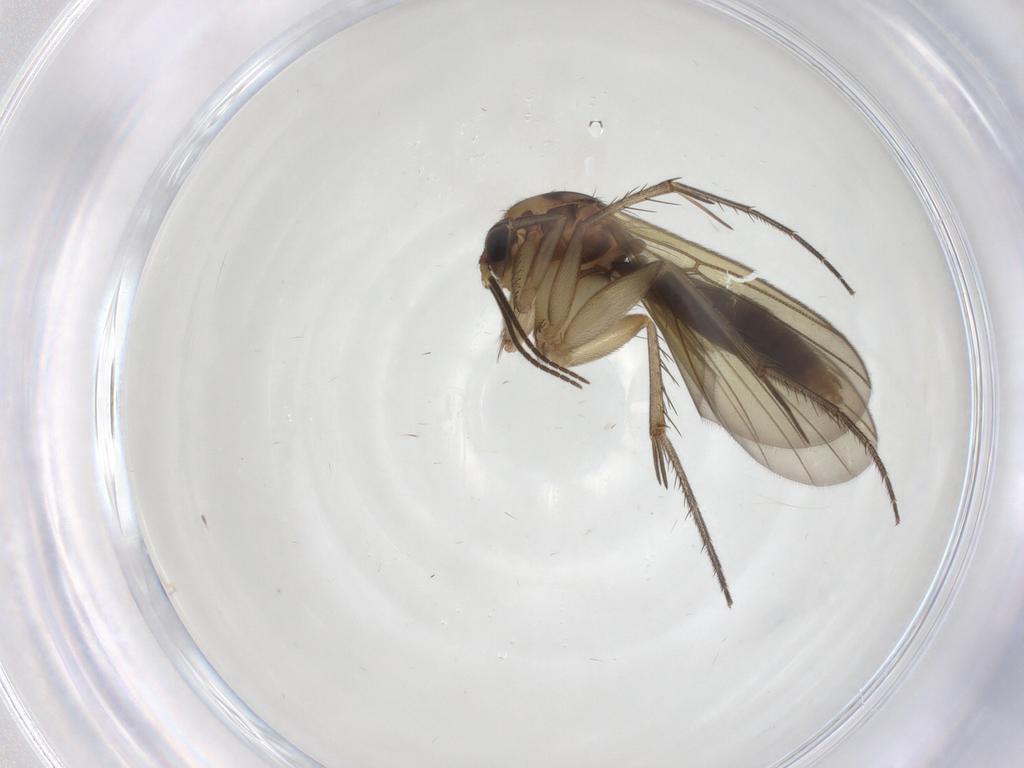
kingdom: Animalia
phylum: Arthropoda
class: Insecta
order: Diptera
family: Mycetophilidae
